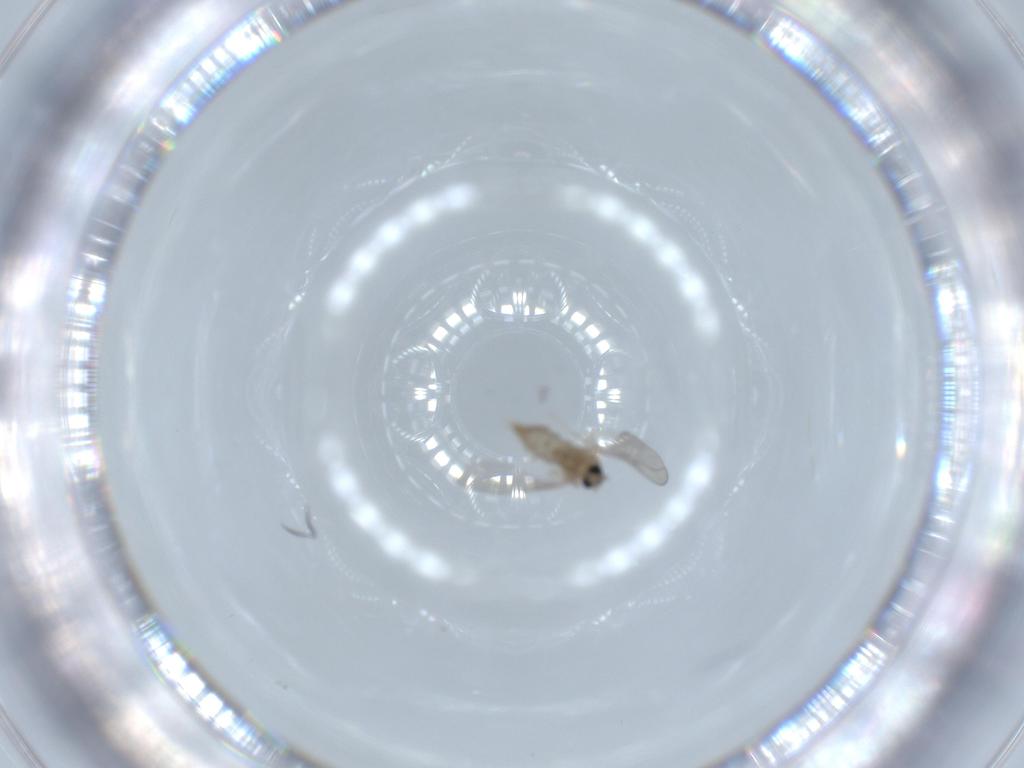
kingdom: Animalia
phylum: Arthropoda
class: Insecta
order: Diptera
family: Cecidomyiidae
